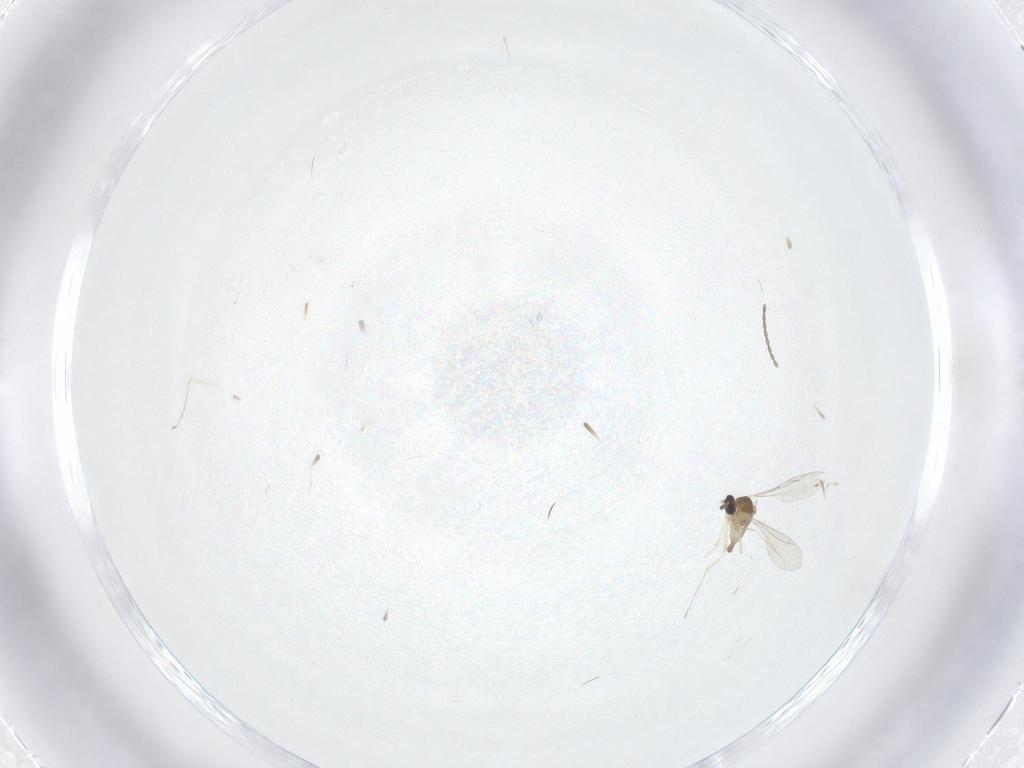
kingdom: Animalia
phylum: Arthropoda
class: Insecta
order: Diptera
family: Cecidomyiidae
